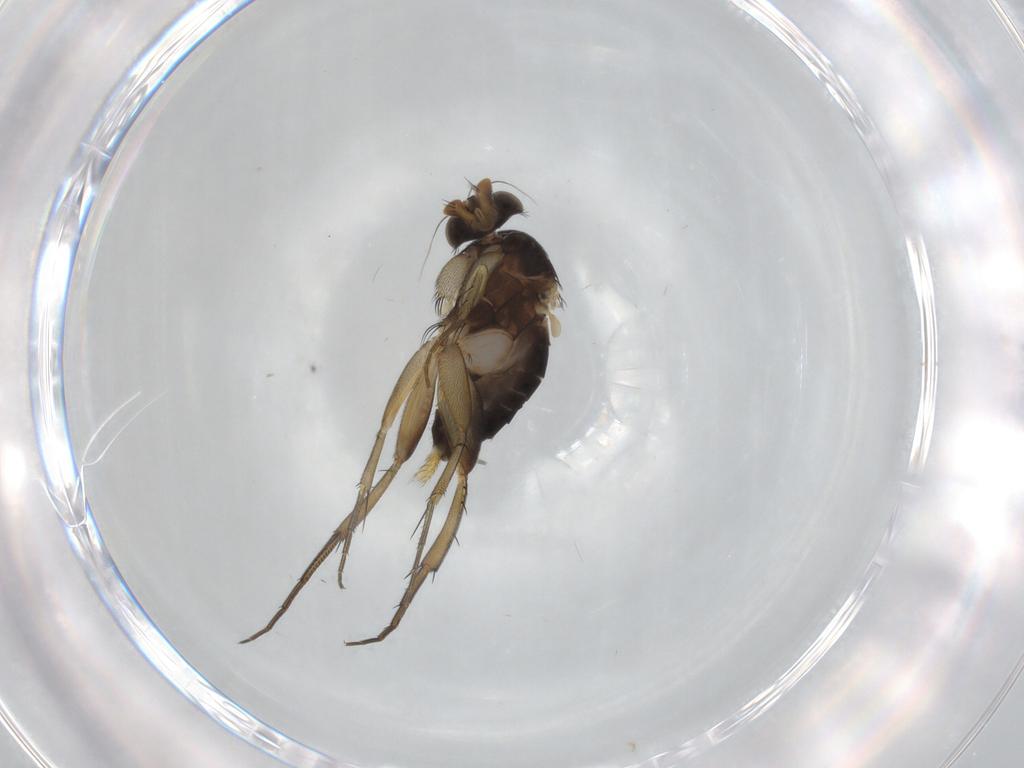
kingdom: Animalia
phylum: Arthropoda
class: Insecta
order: Diptera
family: Phoridae
